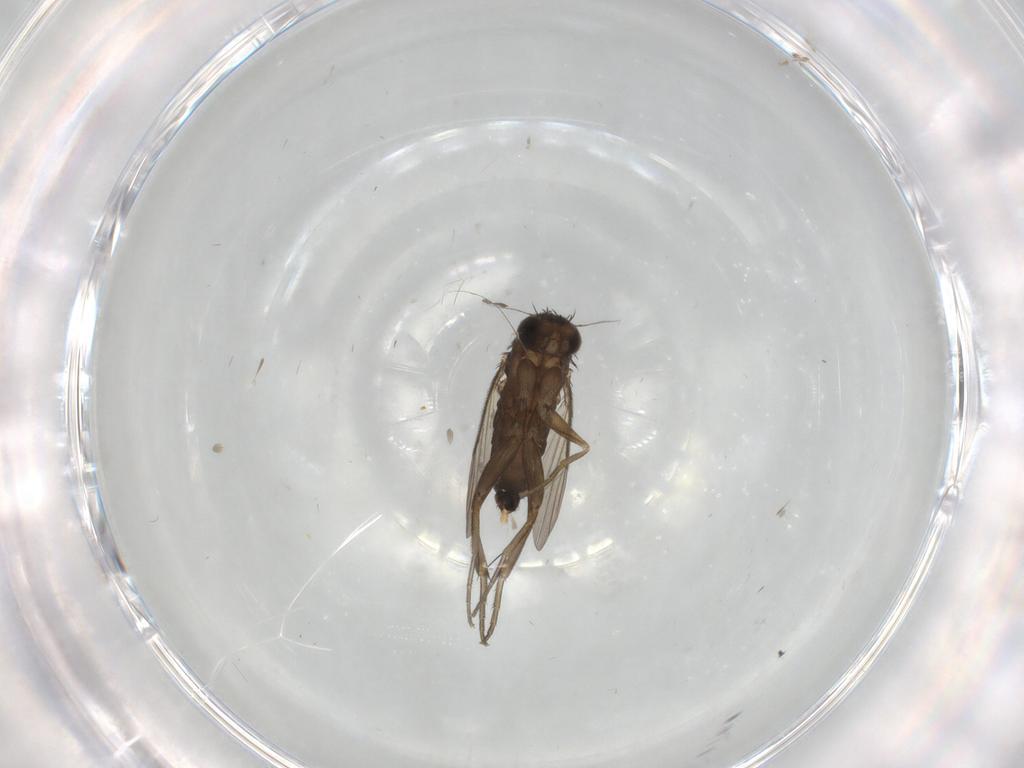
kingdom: Animalia
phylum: Arthropoda
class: Insecta
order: Diptera
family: Phoridae
